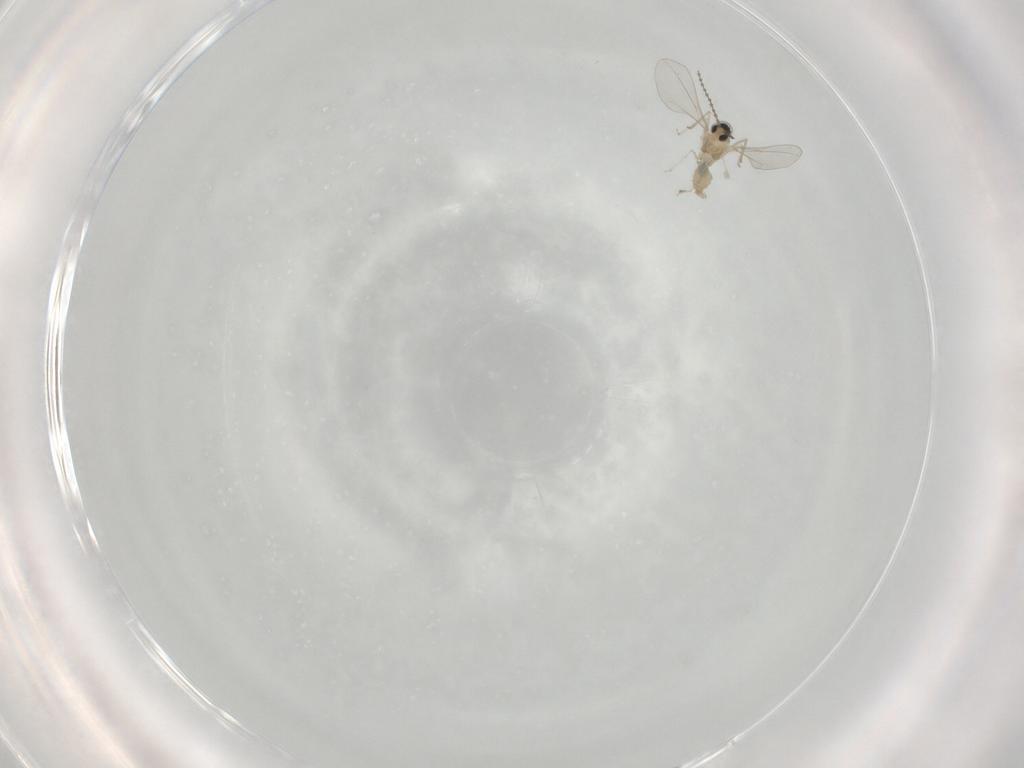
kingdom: Animalia
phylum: Arthropoda
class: Insecta
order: Diptera
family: Chironomidae
